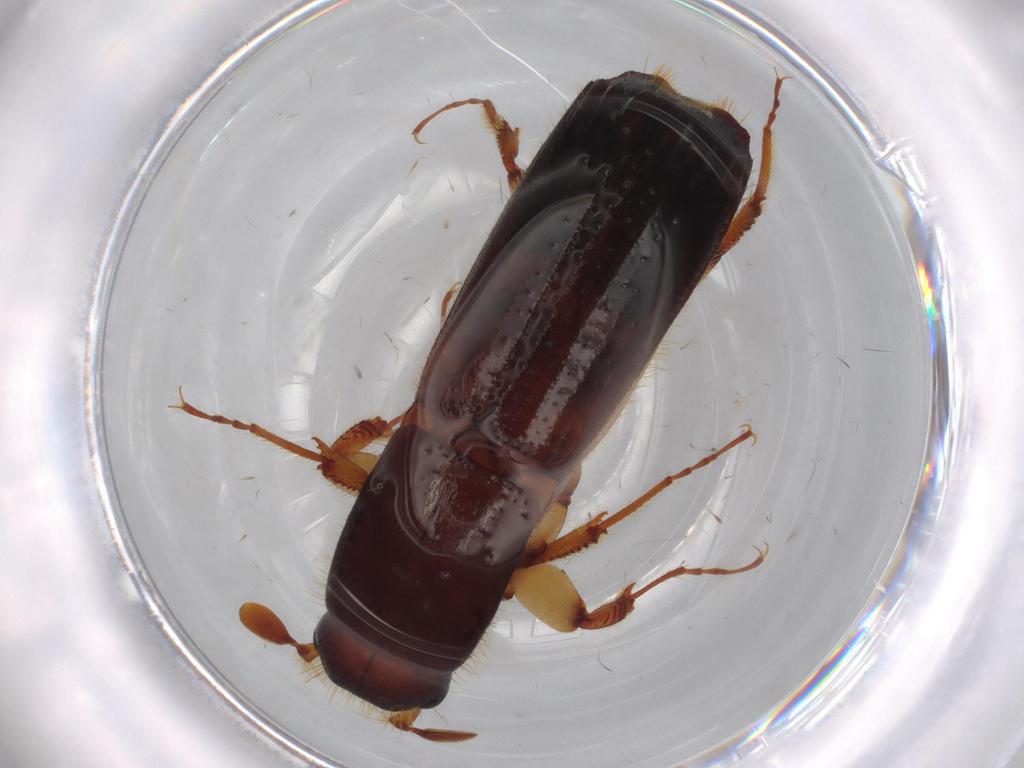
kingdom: Animalia
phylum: Arthropoda
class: Insecta
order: Coleoptera
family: Curculionidae
